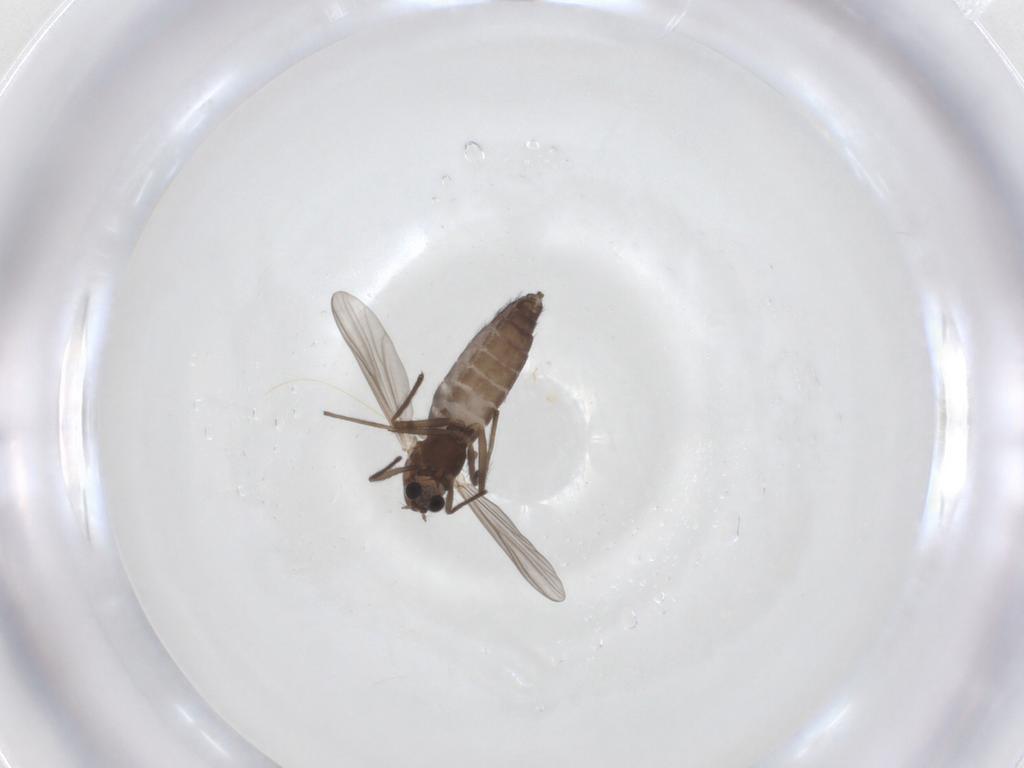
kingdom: Animalia
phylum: Arthropoda
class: Insecta
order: Diptera
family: Chironomidae
